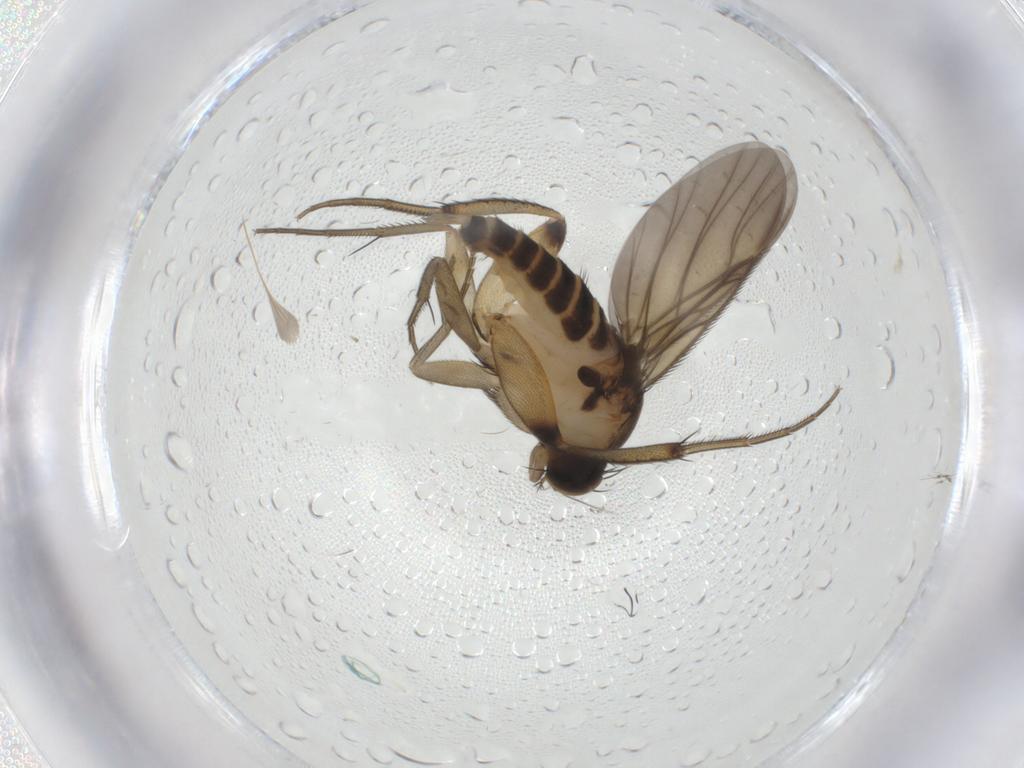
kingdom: Animalia
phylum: Arthropoda
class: Insecta
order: Diptera
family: Phoridae
